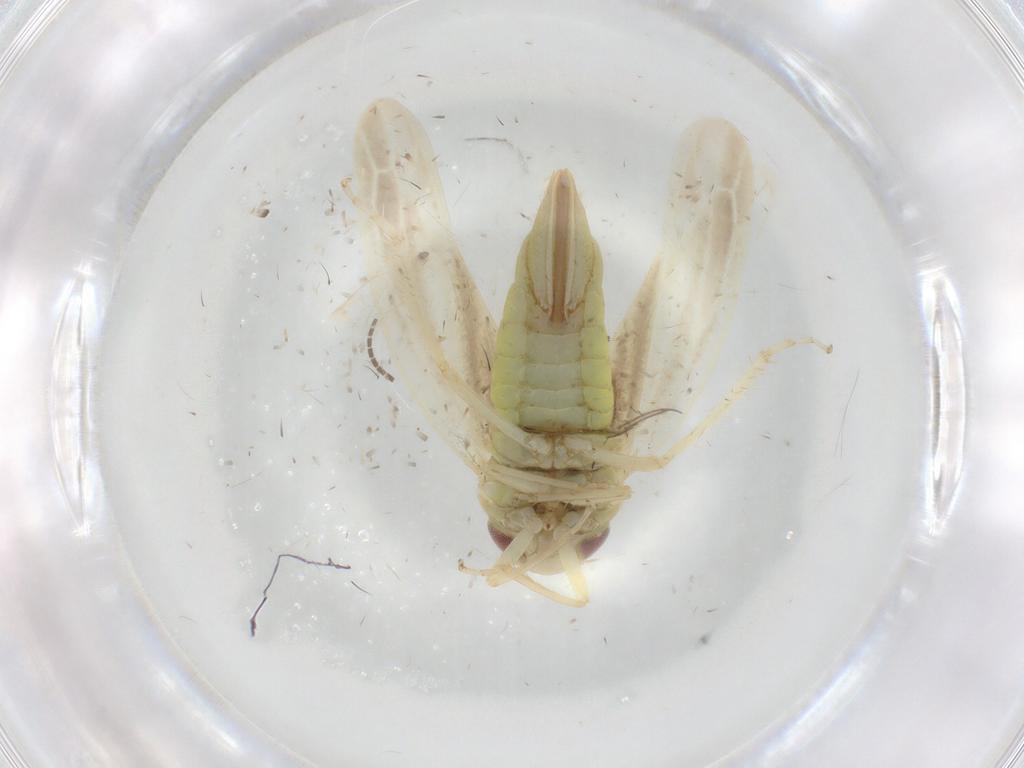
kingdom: Animalia
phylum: Arthropoda
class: Insecta
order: Hemiptera
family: Cicadellidae
